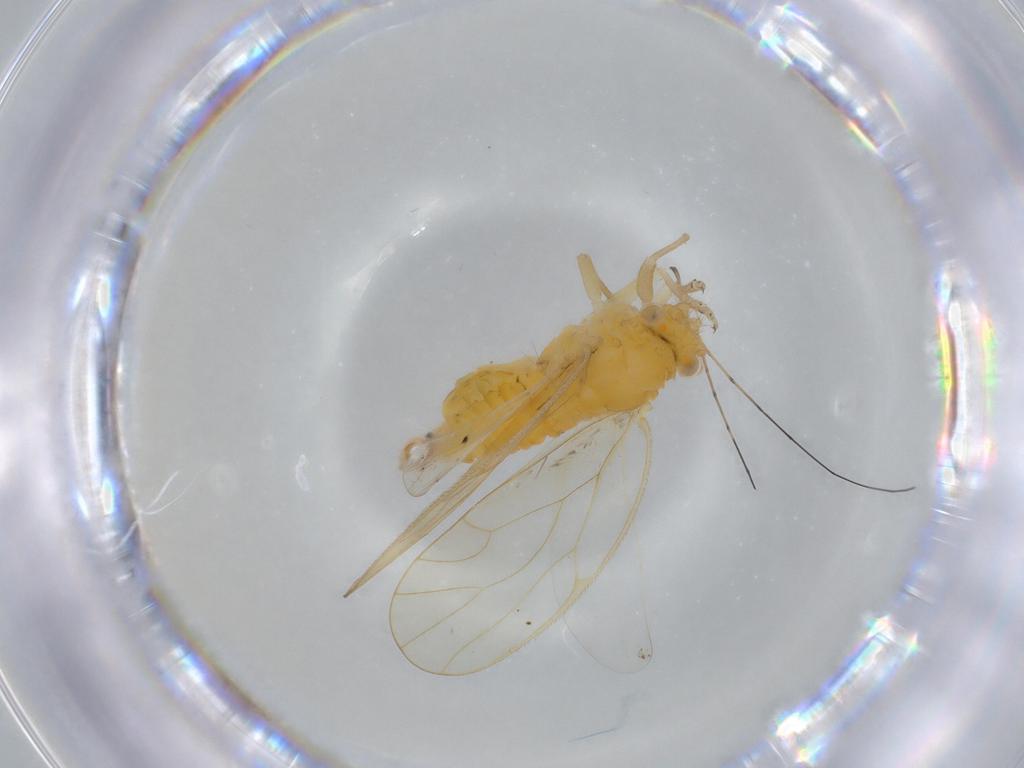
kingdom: Animalia
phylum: Arthropoda
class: Insecta
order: Hemiptera
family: Psyllidae
